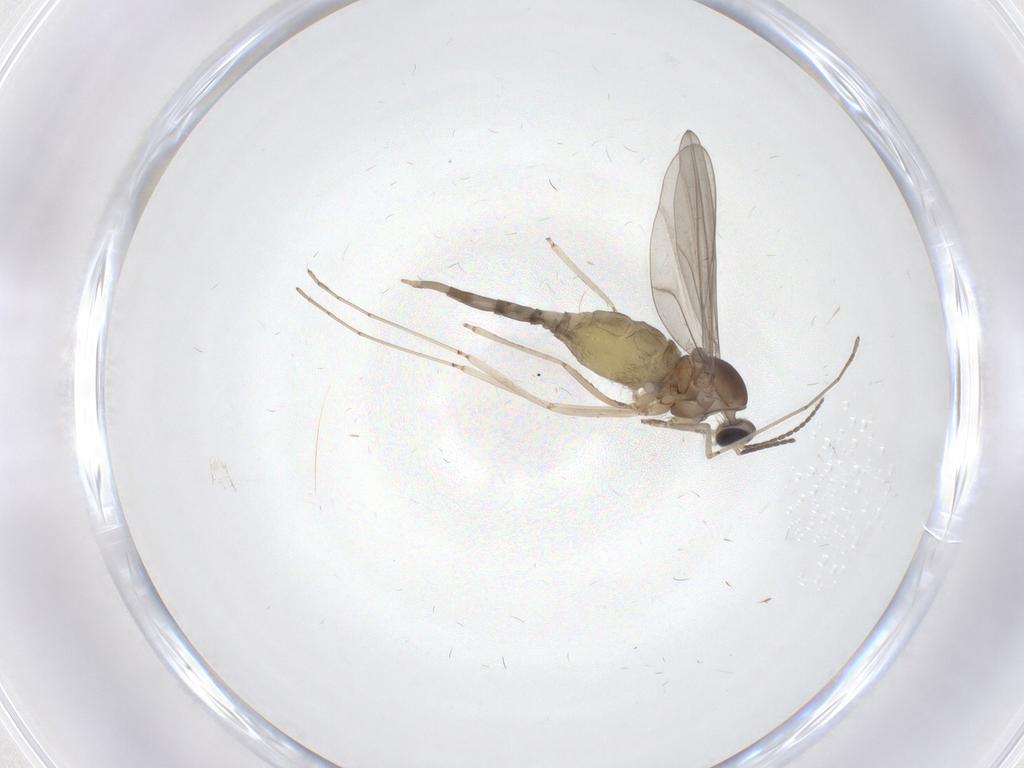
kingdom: Animalia
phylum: Arthropoda
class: Insecta
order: Diptera
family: Cecidomyiidae
